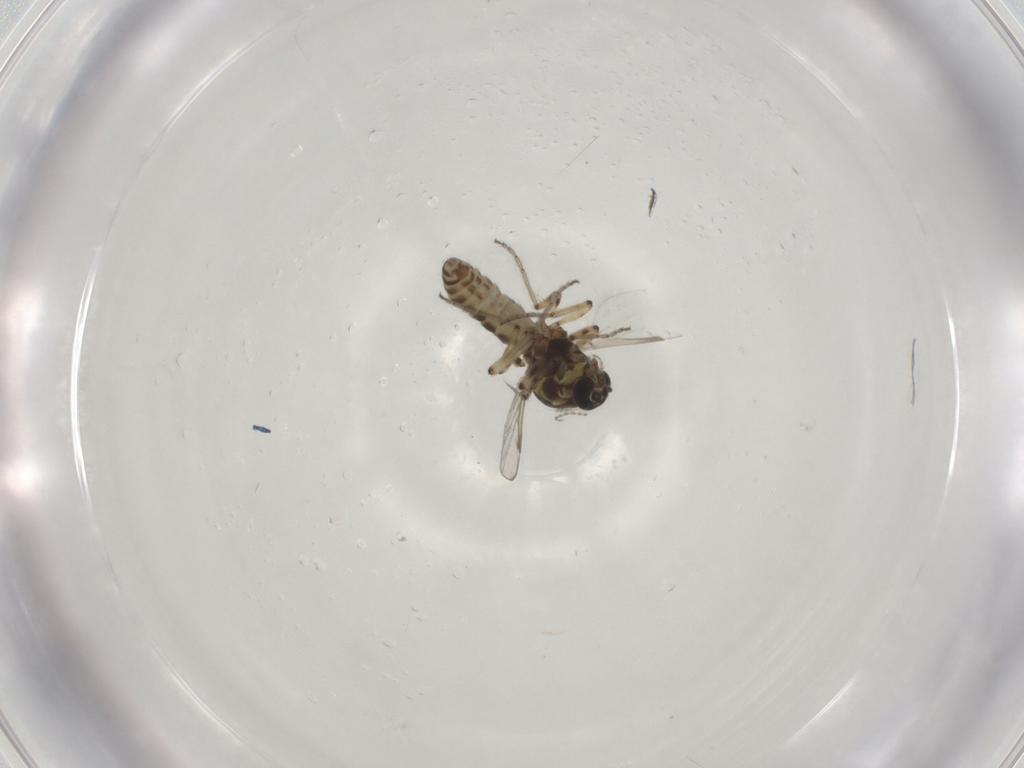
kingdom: Animalia
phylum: Arthropoda
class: Insecta
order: Diptera
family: Ceratopogonidae
